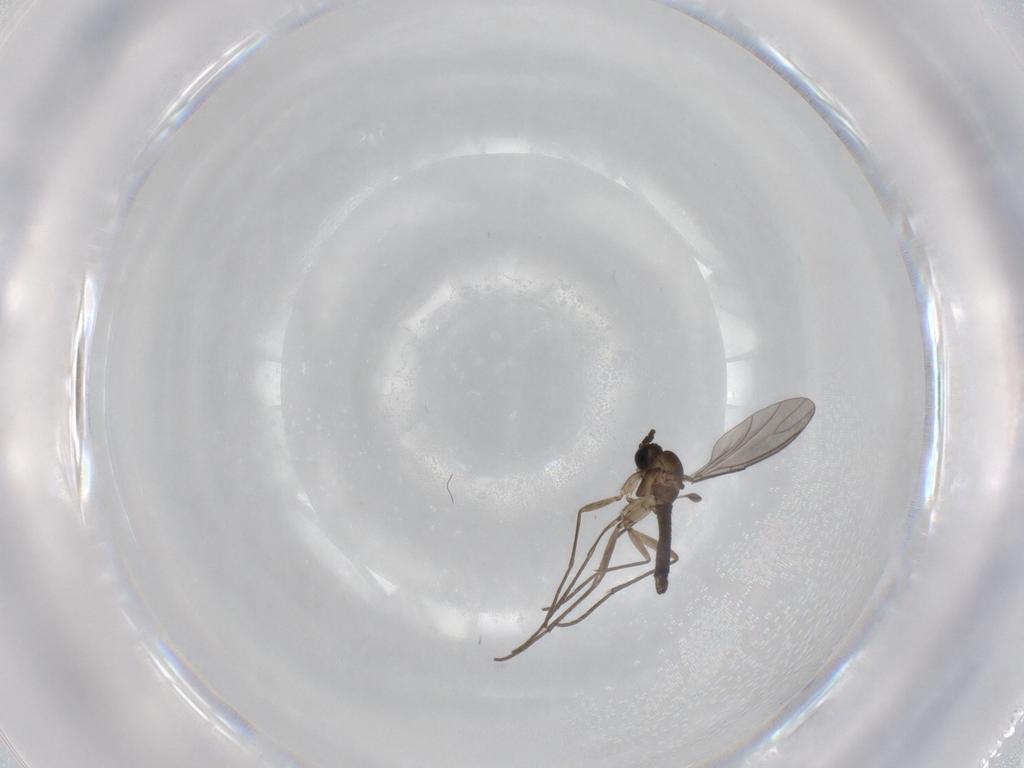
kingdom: Animalia
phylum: Arthropoda
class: Insecta
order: Diptera
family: Sciaridae
